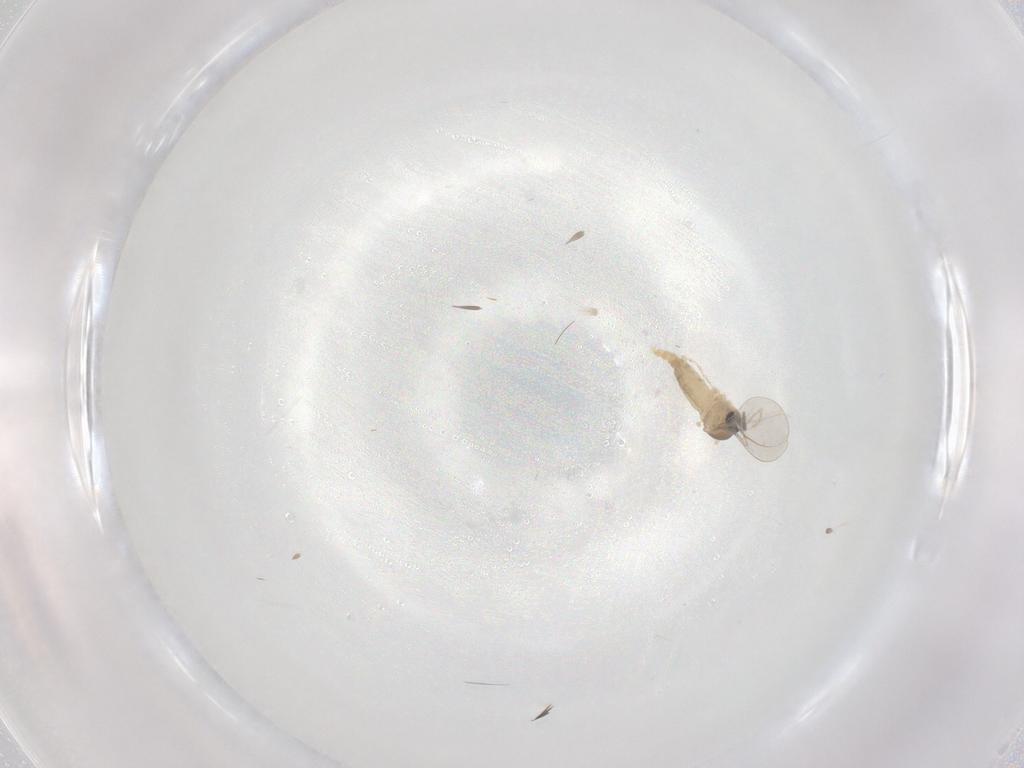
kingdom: Animalia
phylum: Arthropoda
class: Insecta
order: Diptera
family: Cecidomyiidae
